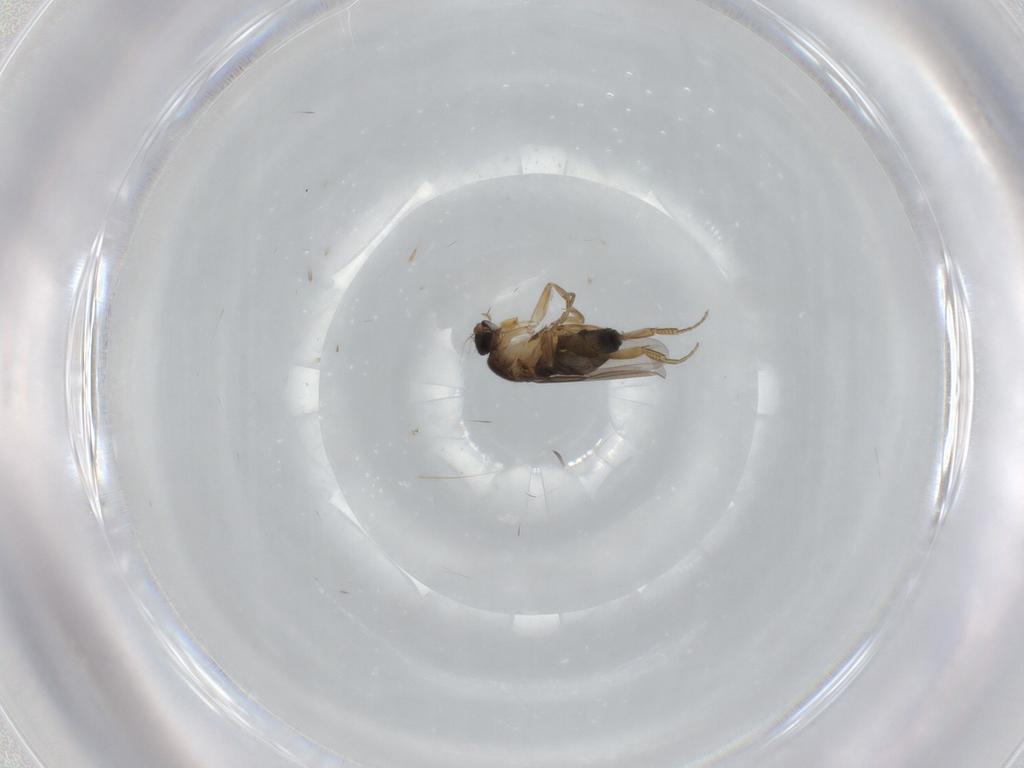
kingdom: Animalia
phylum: Arthropoda
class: Insecta
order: Diptera
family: Phoridae
